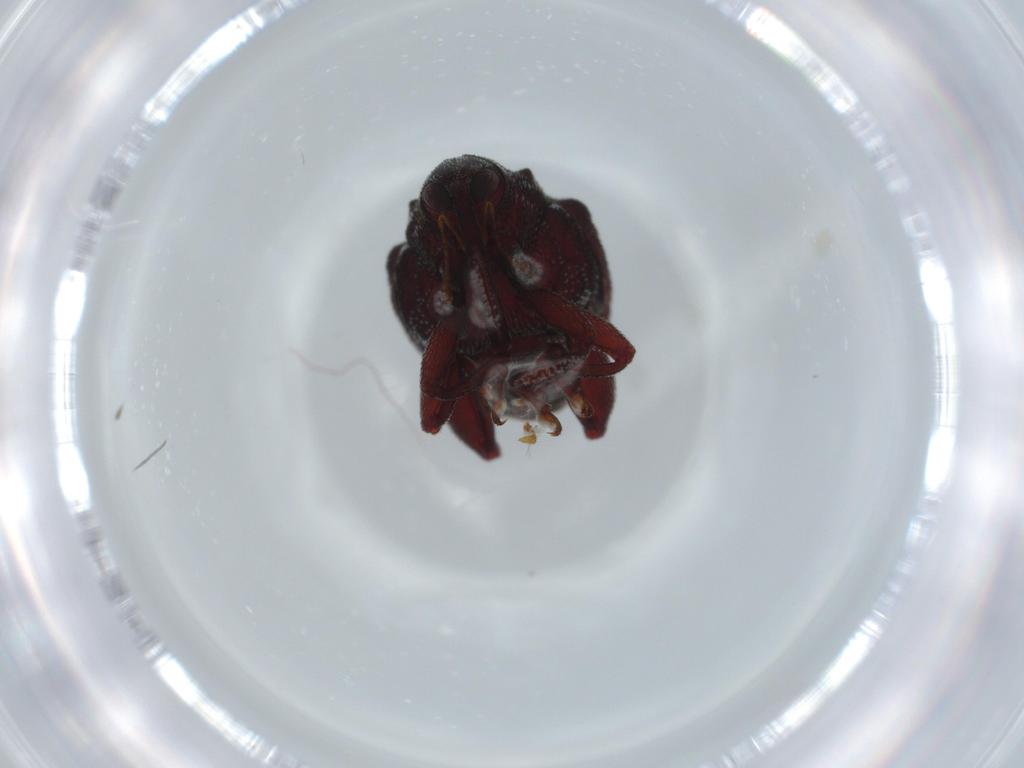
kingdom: Animalia
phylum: Arthropoda
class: Insecta
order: Coleoptera
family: Curculionidae
